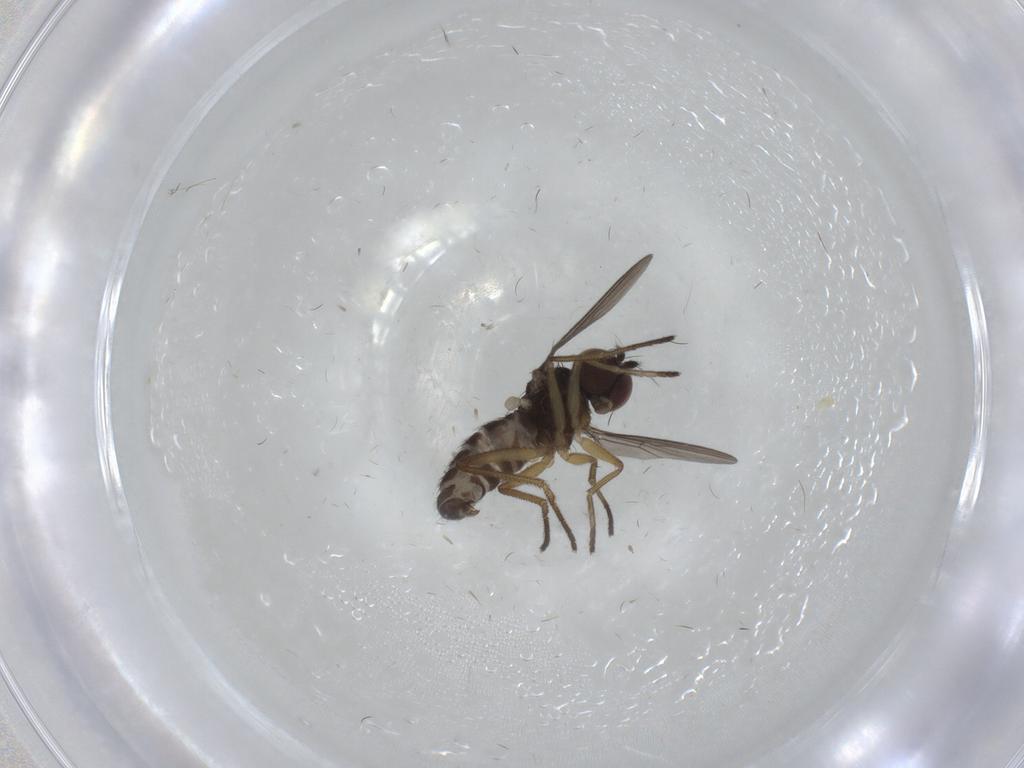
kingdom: Animalia
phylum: Arthropoda
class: Insecta
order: Diptera
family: Dolichopodidae
